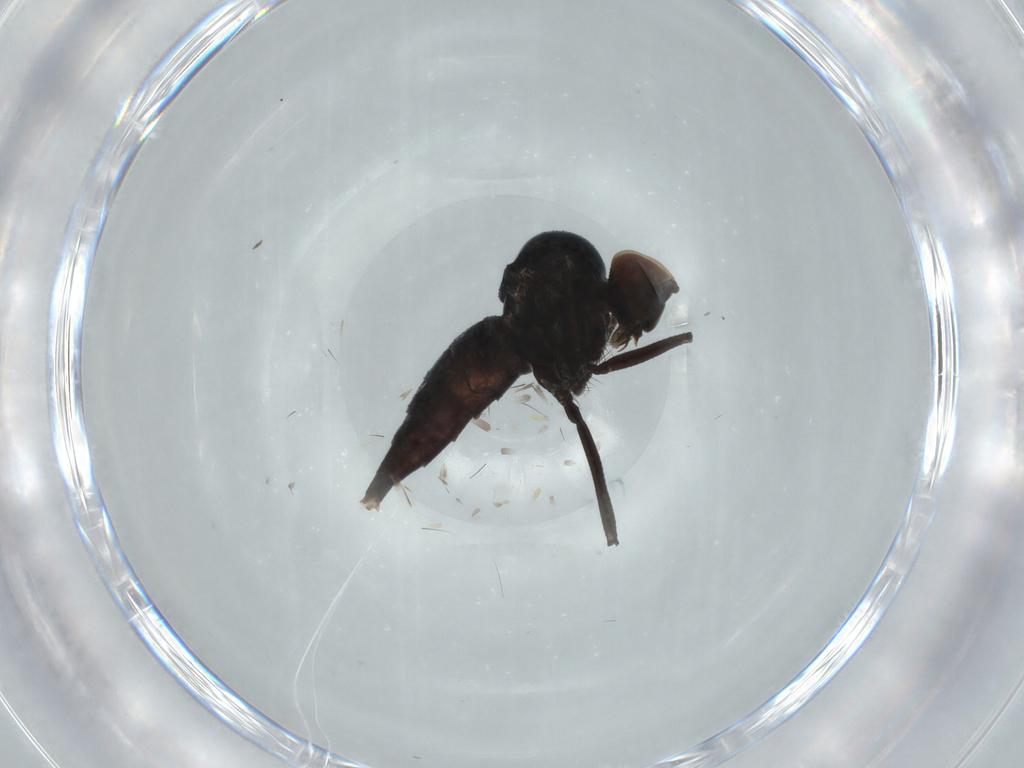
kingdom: Animalia
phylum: Arthropoda
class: Insecta
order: Diptera
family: Hybotidae
